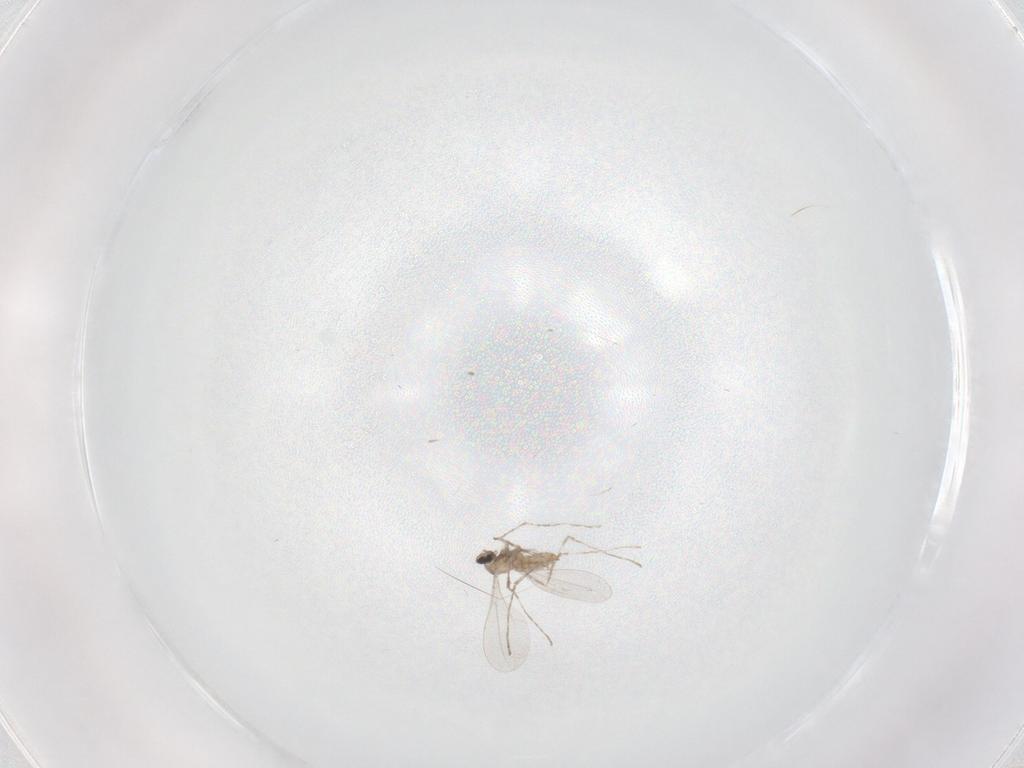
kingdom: Animalia
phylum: Arthropoda
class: Insecta
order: Diptera
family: Cecidomyiidae
